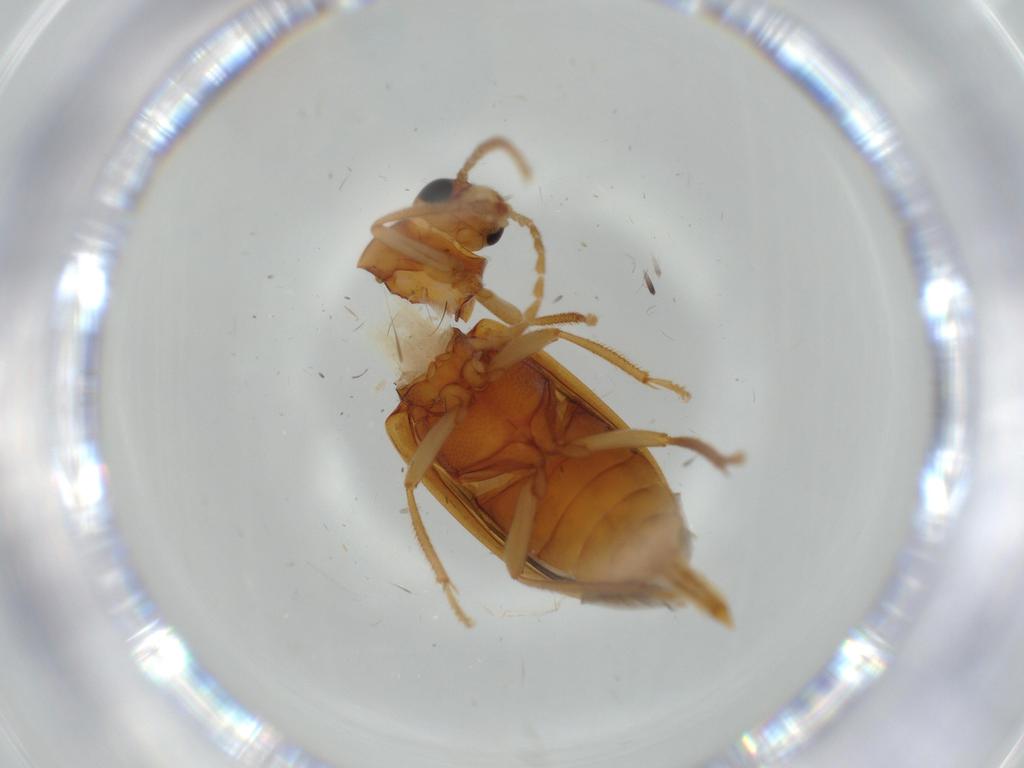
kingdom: Animalia
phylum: Arthropoda
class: Insecta
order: Coleoptera
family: Ptilodactylidae
